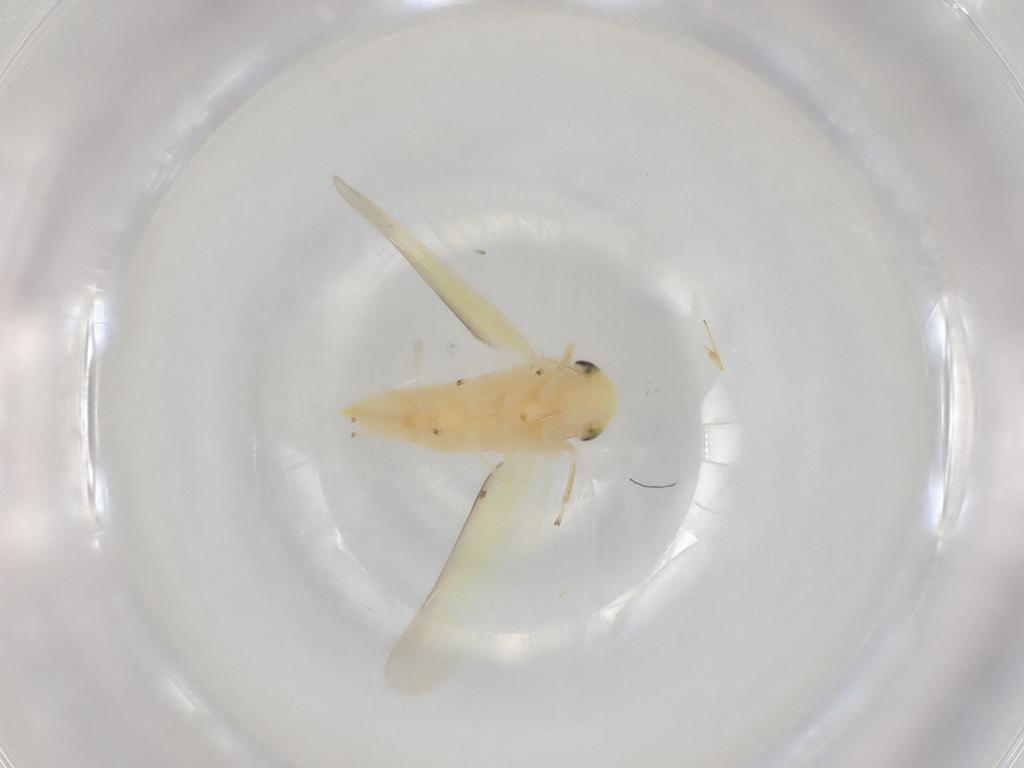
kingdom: Animalia
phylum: Arthropoda
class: Insecta
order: Hemiptera
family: Cicadellidae
